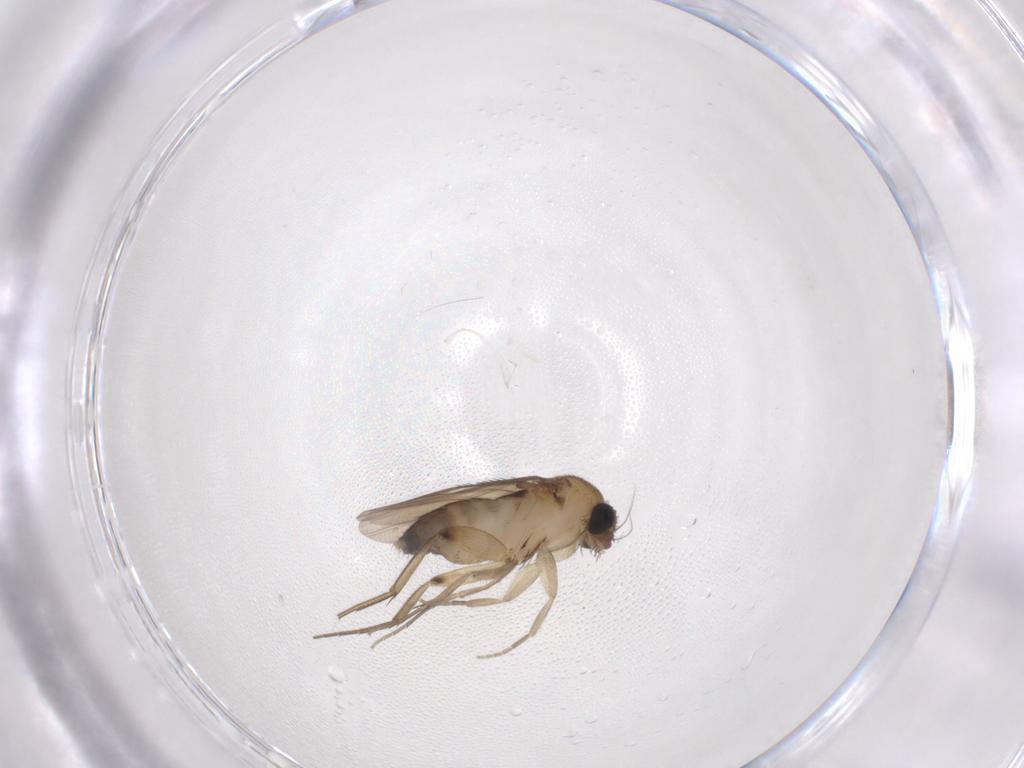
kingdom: Animalia
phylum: Arthropoda
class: Insecta
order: Diptera
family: Phoridae
